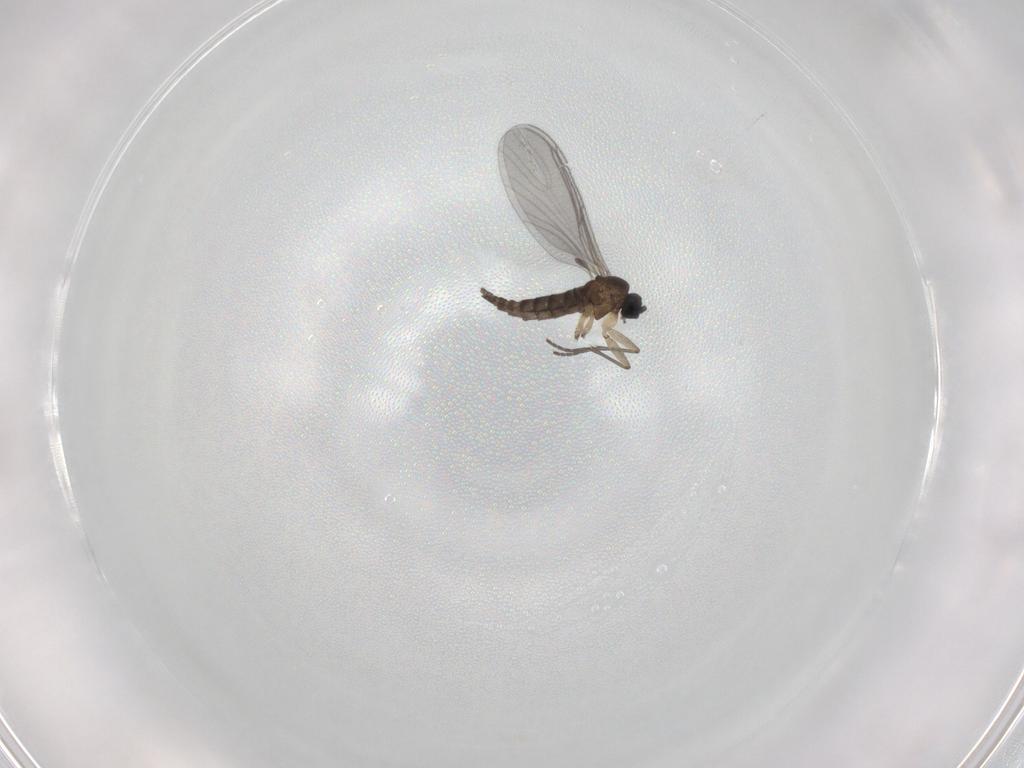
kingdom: Animalia
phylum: Arthropoda
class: Insecta
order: Diptera
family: Sciaridae
